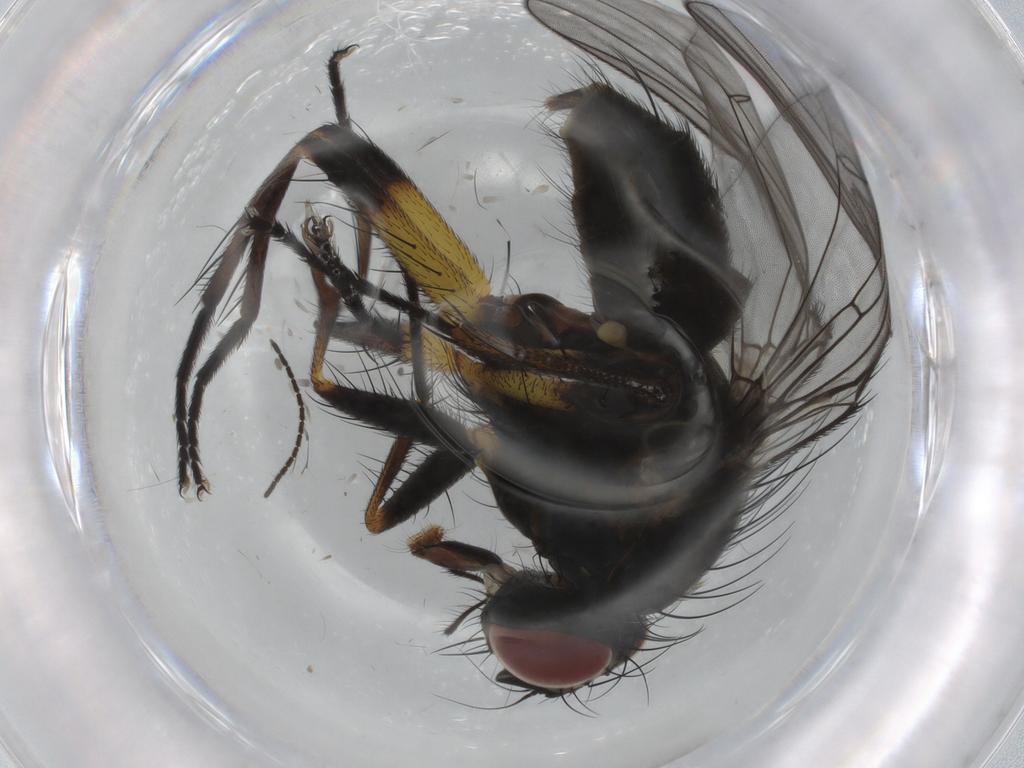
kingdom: Animalia
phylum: Arthropoda
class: Insecta
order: Diptera
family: Muscidae
